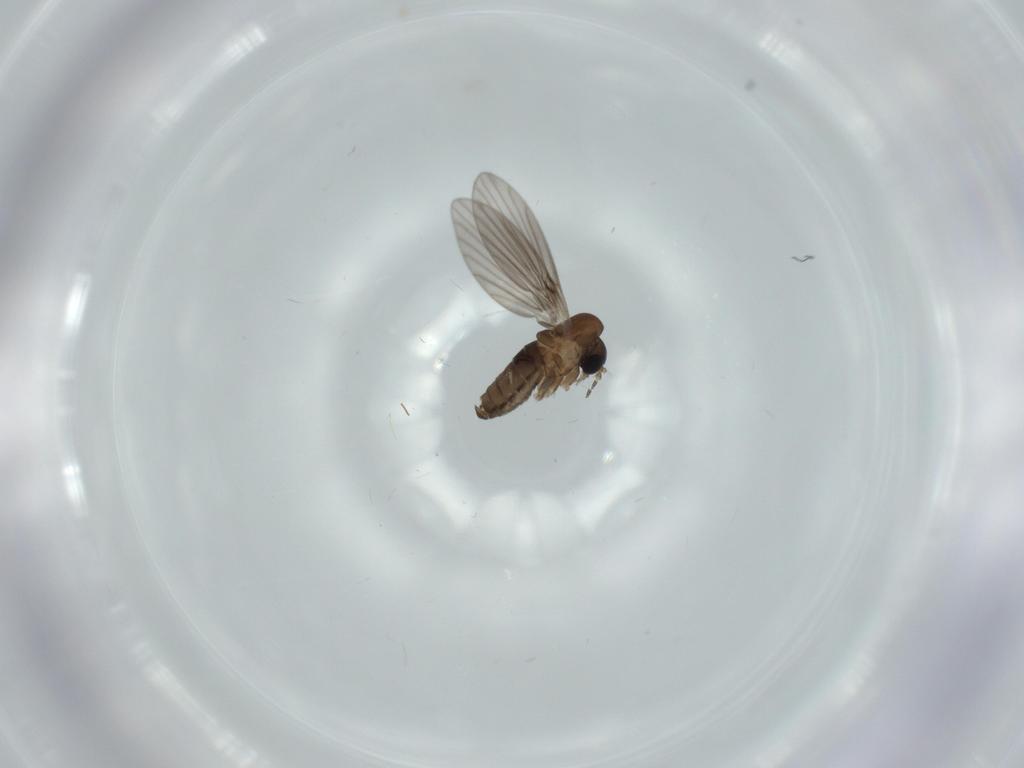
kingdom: Animalia
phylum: Arthropoda
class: Insecta
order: Diptera
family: Psychodidae
